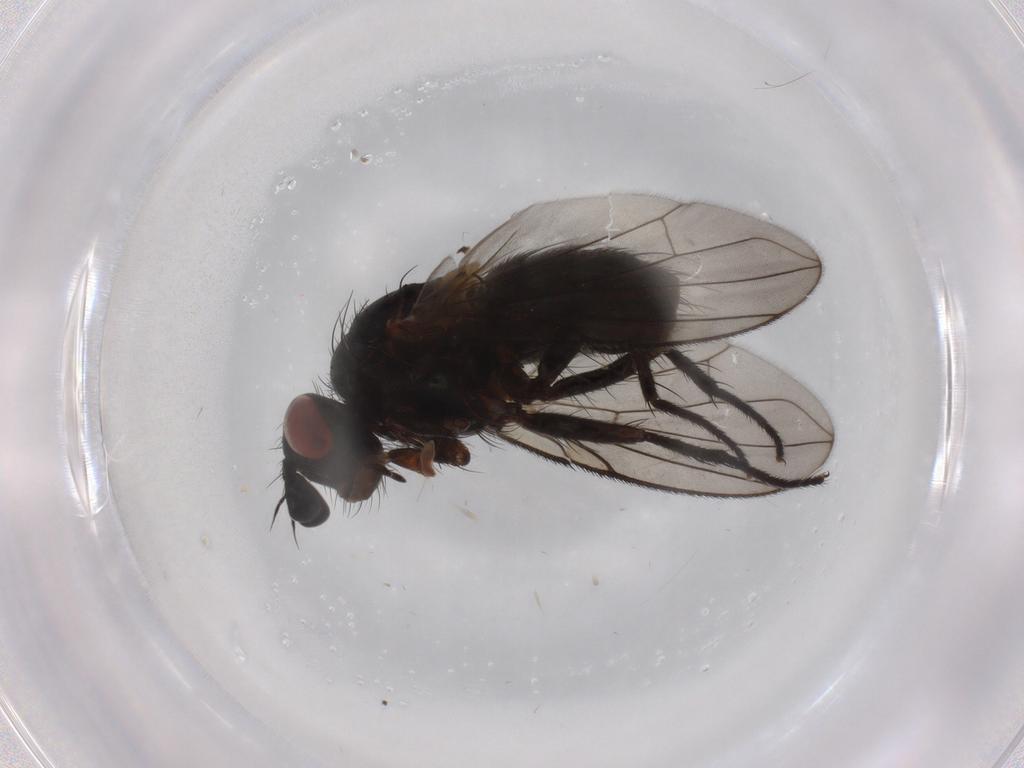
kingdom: Animalia
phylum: Arthropoda
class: Insecta
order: Diptera
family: Tachinidae
